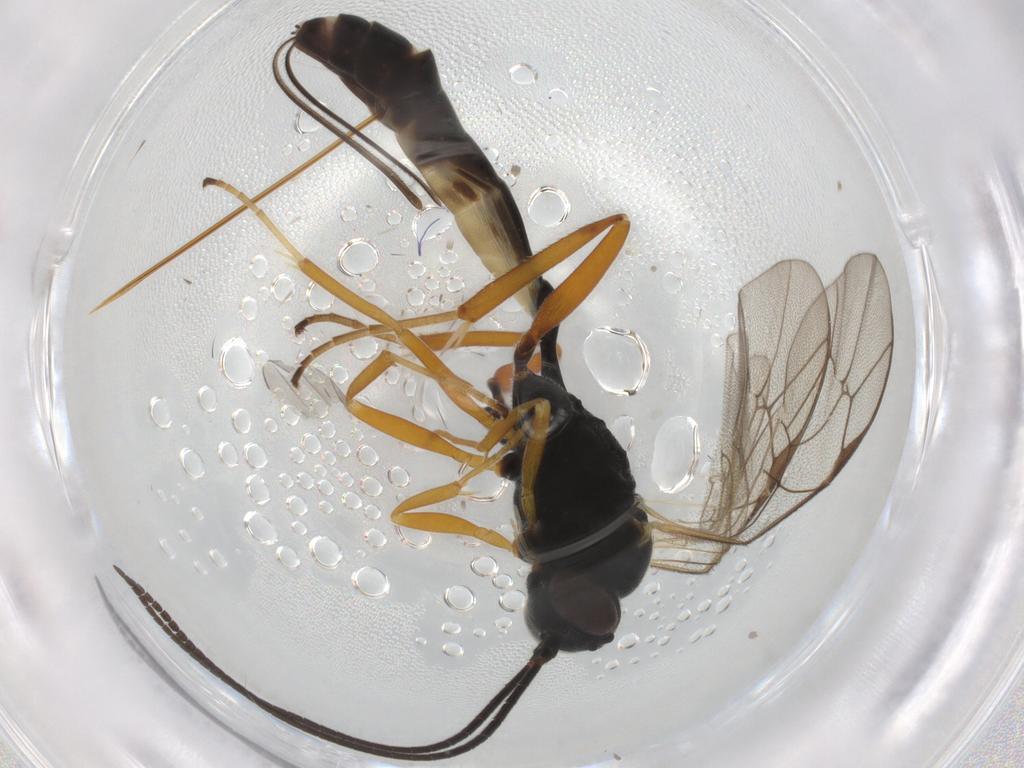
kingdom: Animalia
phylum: Arthropoda
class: Insecta
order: Hymenoptera
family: Ichneumonidae
